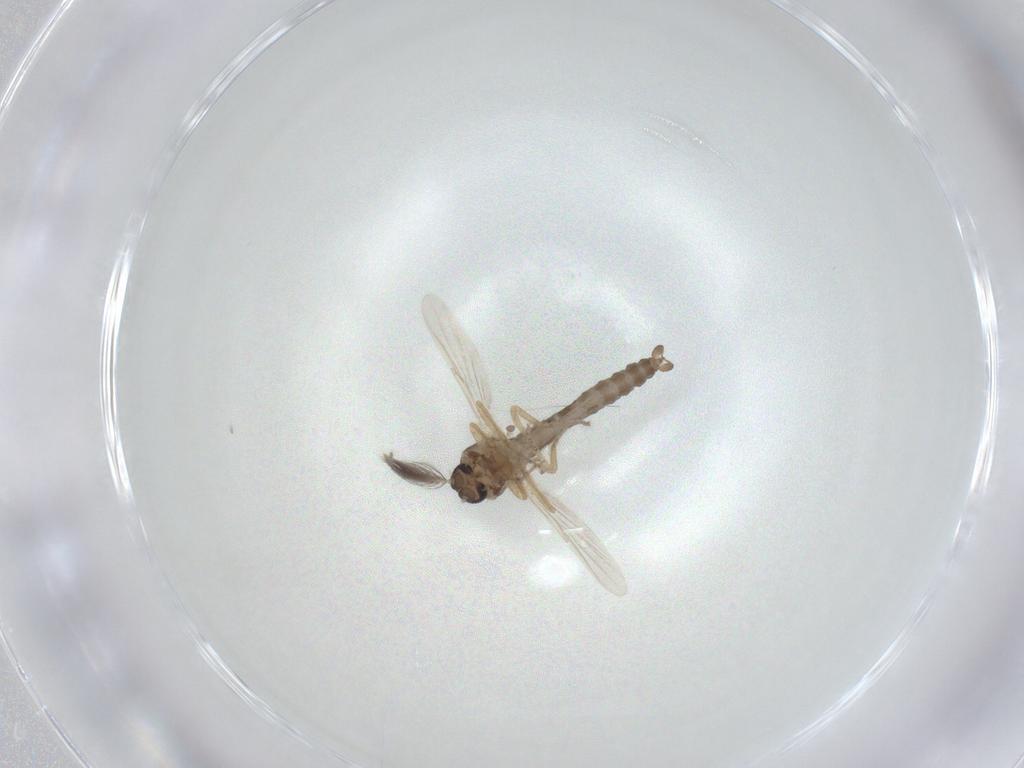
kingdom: Animalia
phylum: Arthropoda
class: Insecta
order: Diptera
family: Ceratopogonidae
